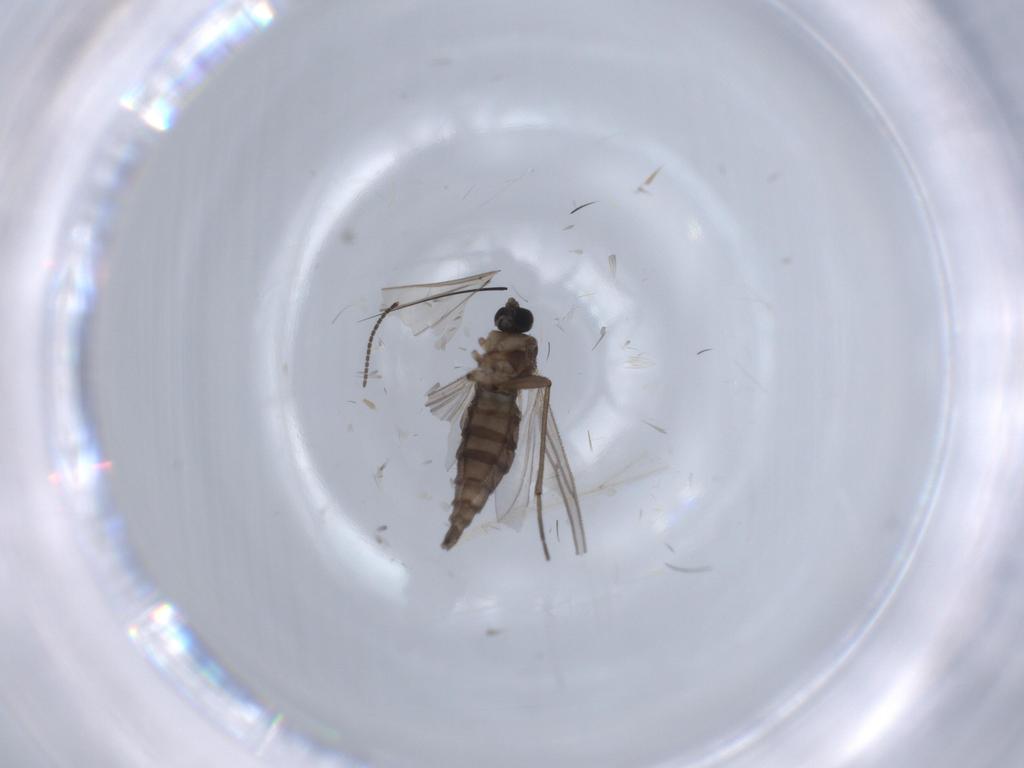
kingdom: Animalia
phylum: Arthropoda
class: Insecta
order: Diptera
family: Sciaridae
